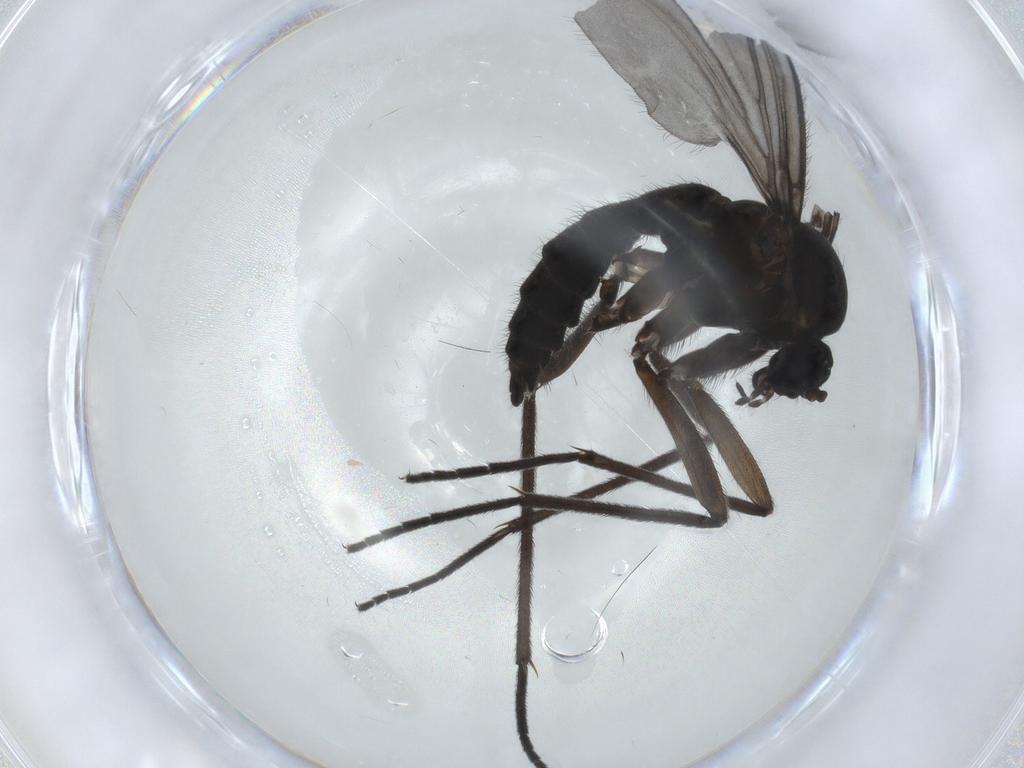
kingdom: Animalia
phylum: Arthropoda
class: Insecta
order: Diptera
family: Sciaridae
